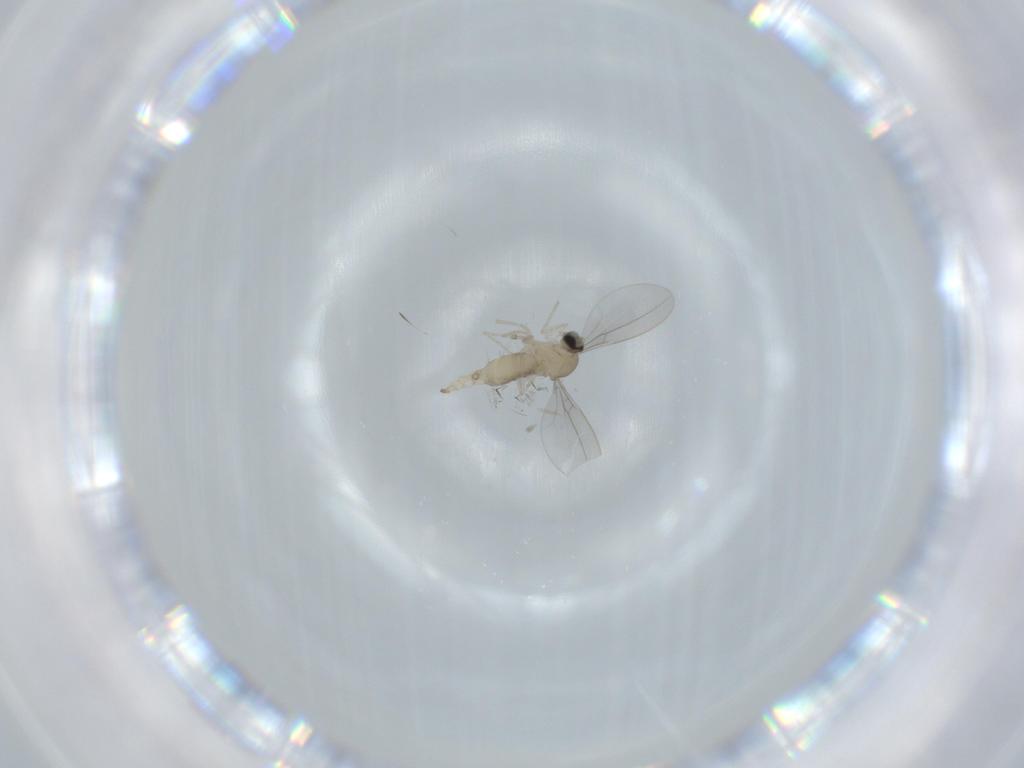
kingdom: Animalia
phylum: Arthropoda
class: Insecta
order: Diptera
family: Cecidomyiidae
